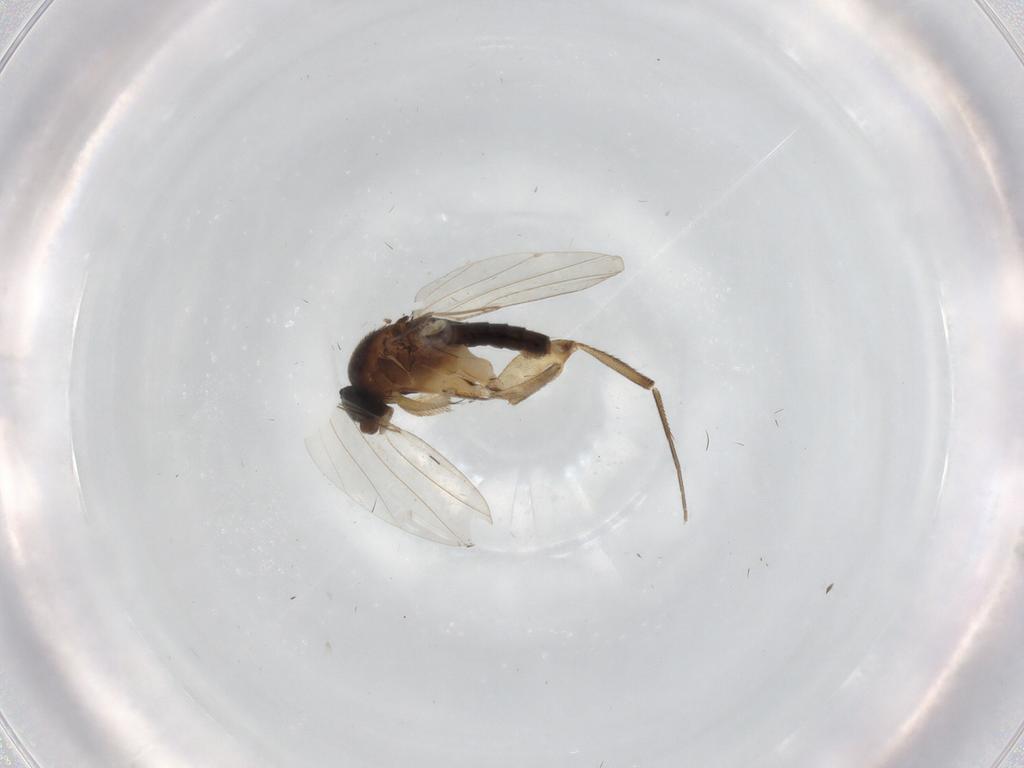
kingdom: Animalia
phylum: Arthropoda
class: Insecta
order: Diptera
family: Phoridae
